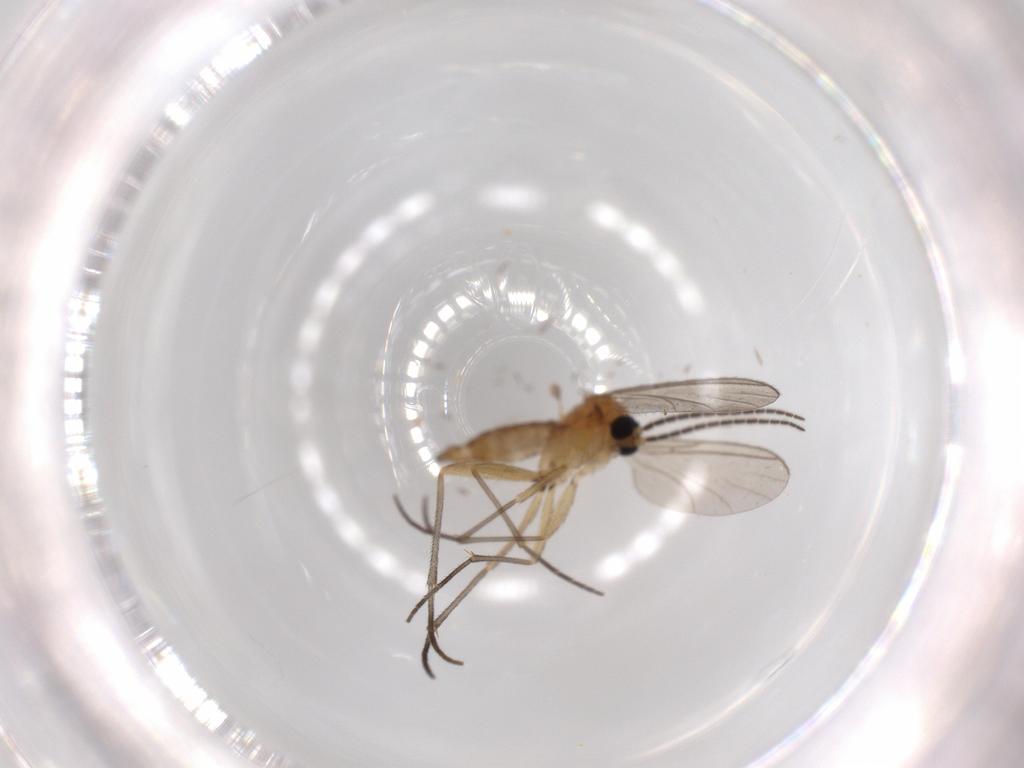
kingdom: Animalia
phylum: Arthropoda
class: Insecta
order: Diptera
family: Sciaridae
